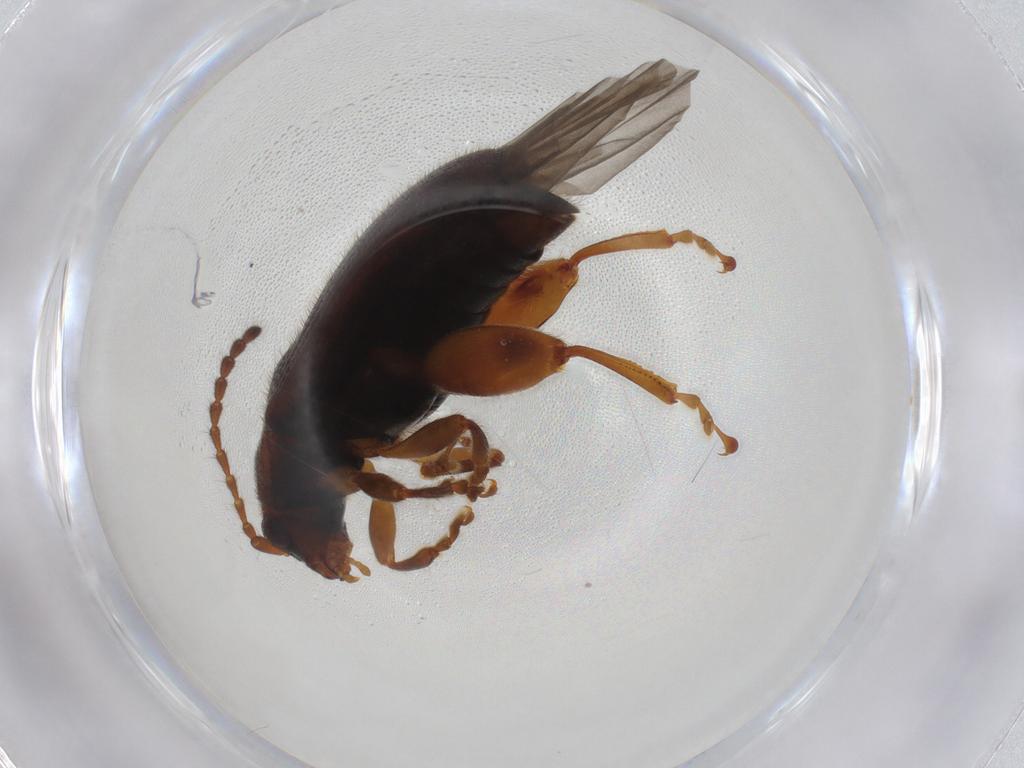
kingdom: Animalia
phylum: Arthropoda
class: Insecta
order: Coleoptera
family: Chrysomelidae
